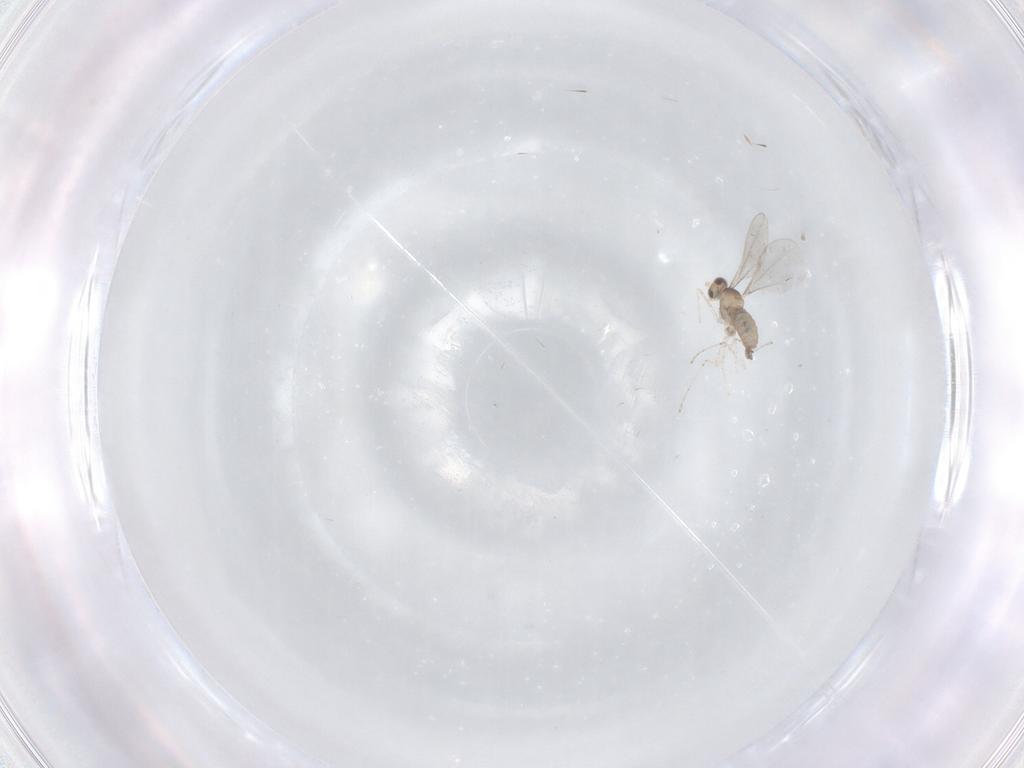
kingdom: Animalia
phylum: Arthropoda
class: Insecta
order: Diptera
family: Cecidomyiidae
